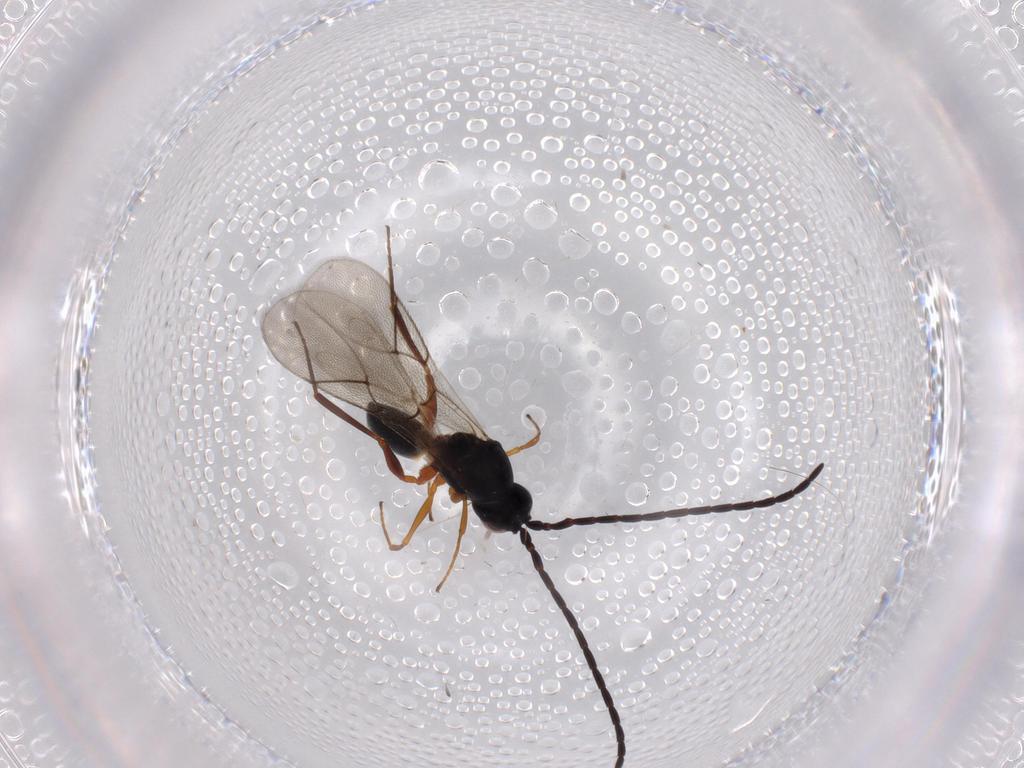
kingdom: Animalia
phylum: Arthropoda
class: Insecta
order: Hymenoptera
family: Figitidae
